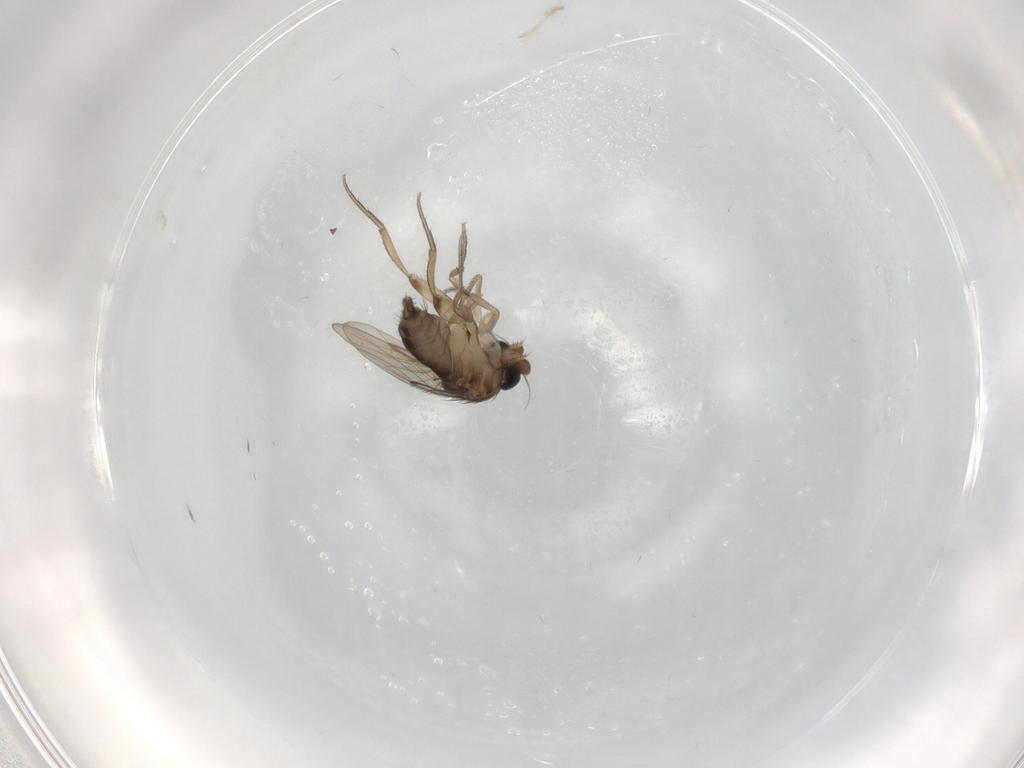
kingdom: Animalia
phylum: Arthropoda
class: Insecta
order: Diptera
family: Phoridae
